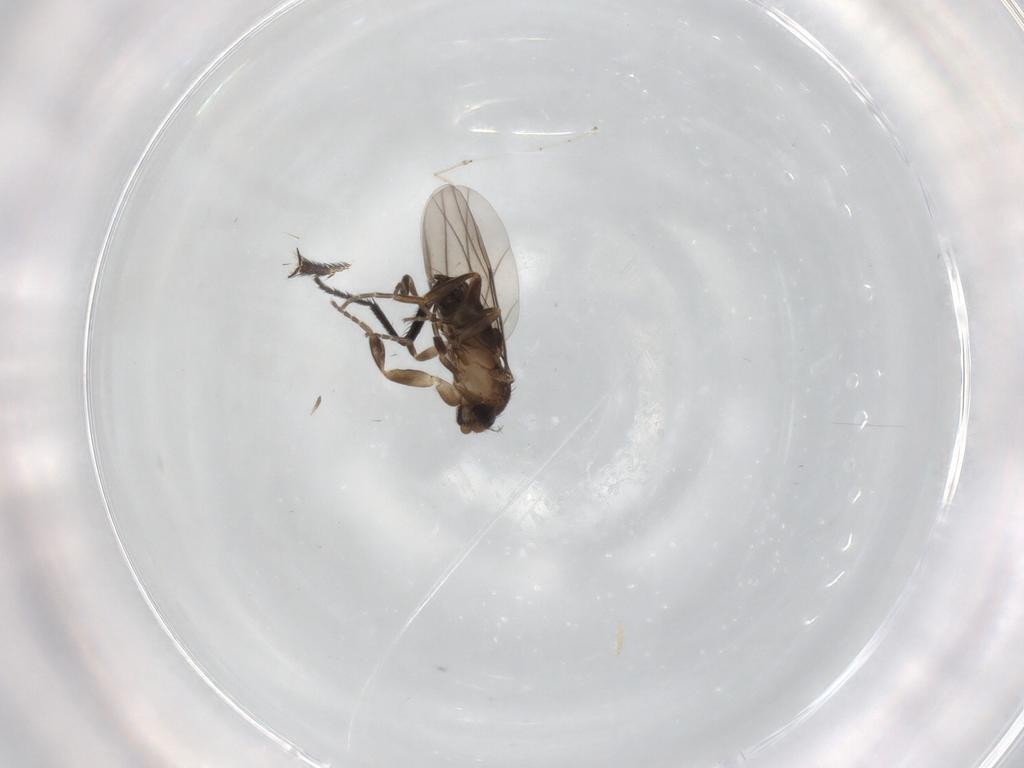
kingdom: Animalia
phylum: Arthropoda
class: Insecta
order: Diptera
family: Phoridae
